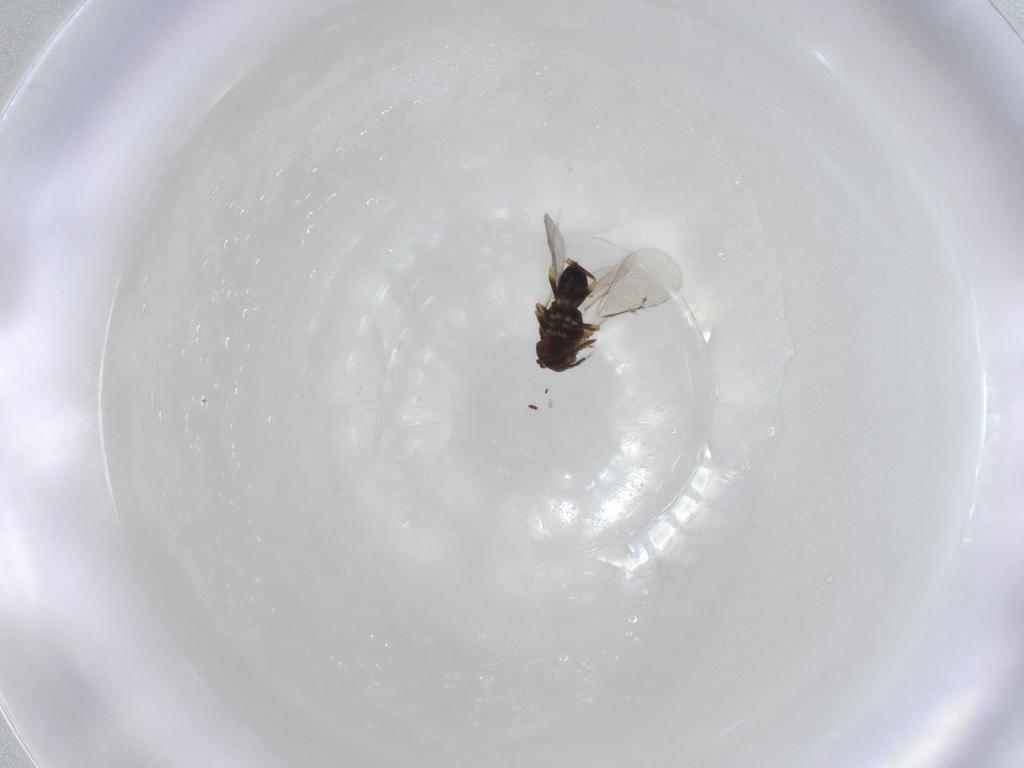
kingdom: Animalia
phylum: Arthropoda
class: Insecta
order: Hymenoptera
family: Eulophidae
